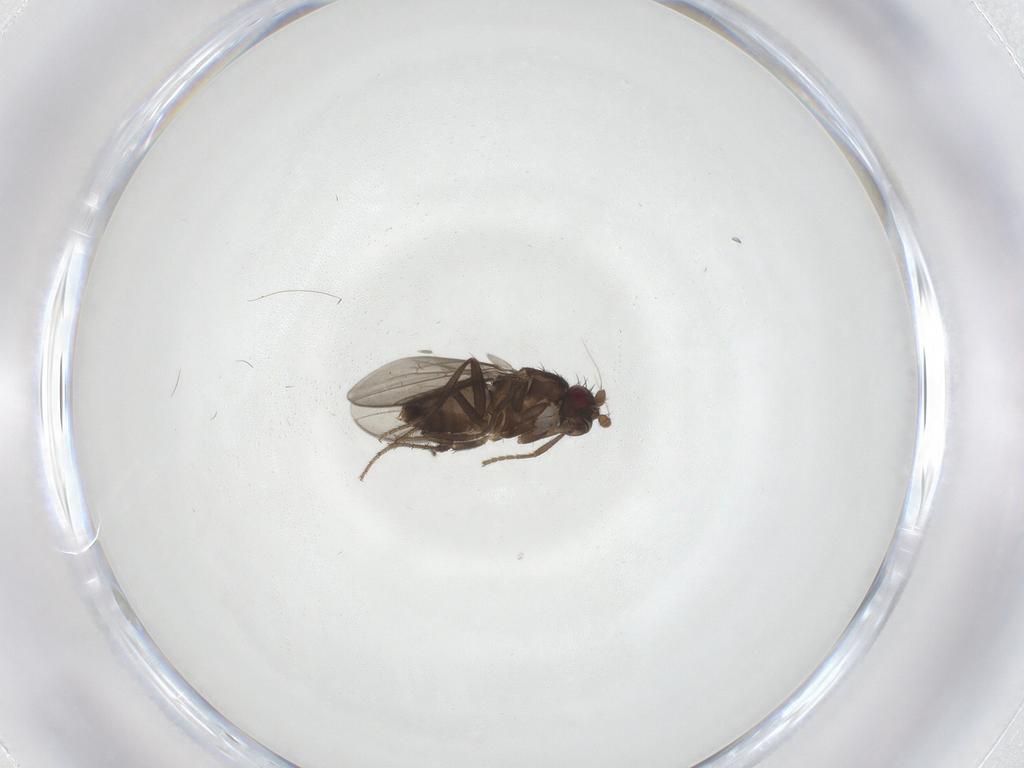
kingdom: Animalia
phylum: Arthropoda
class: Insecta
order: Diptera
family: Sphaeroceridae
